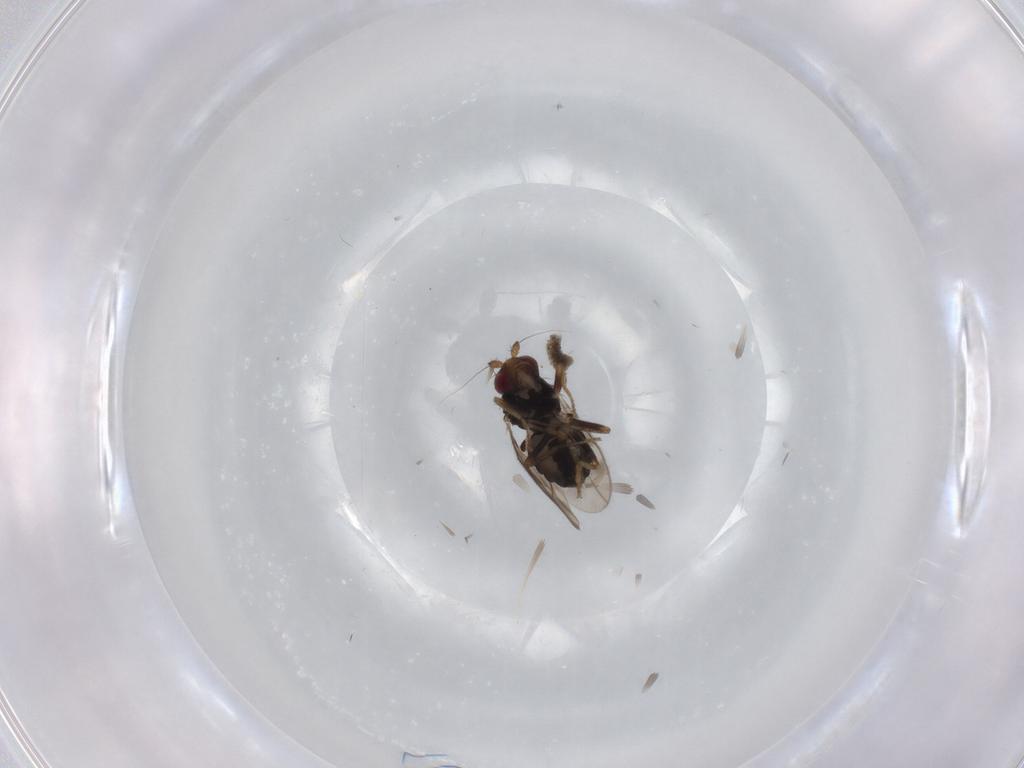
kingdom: Animalia
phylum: Arthropoda
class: Insecta
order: Diptera
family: Sphaeroceridae
